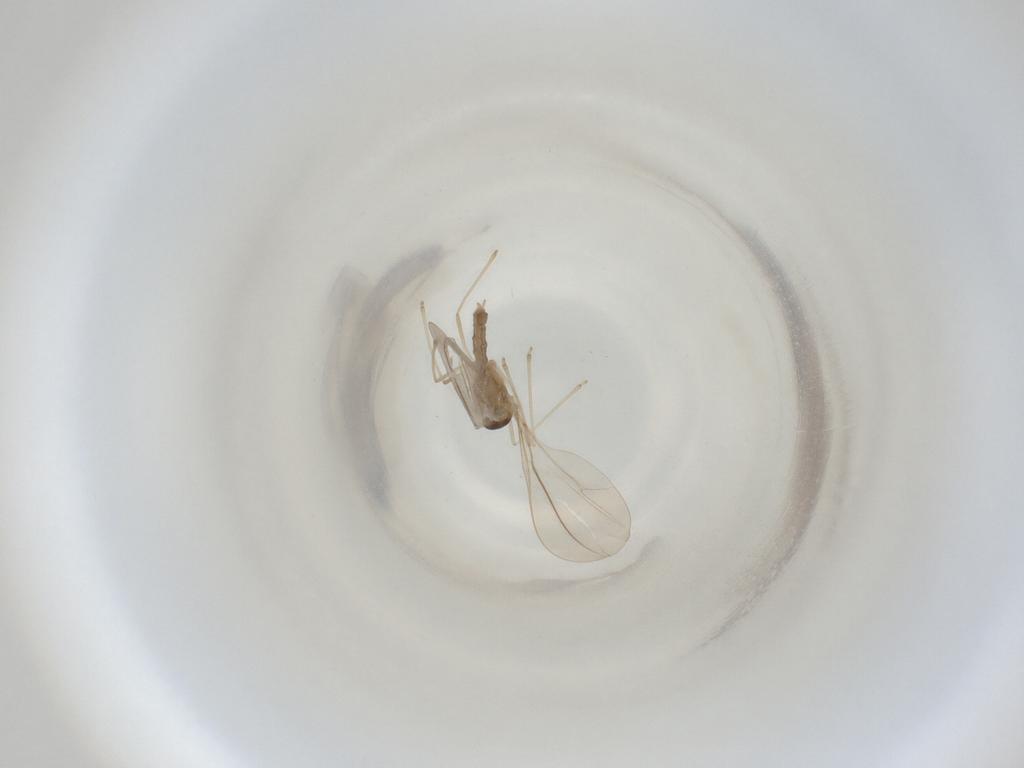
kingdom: Animalia
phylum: Arthropoda
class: Insecta
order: Diptera
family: Cecidomyiidae
